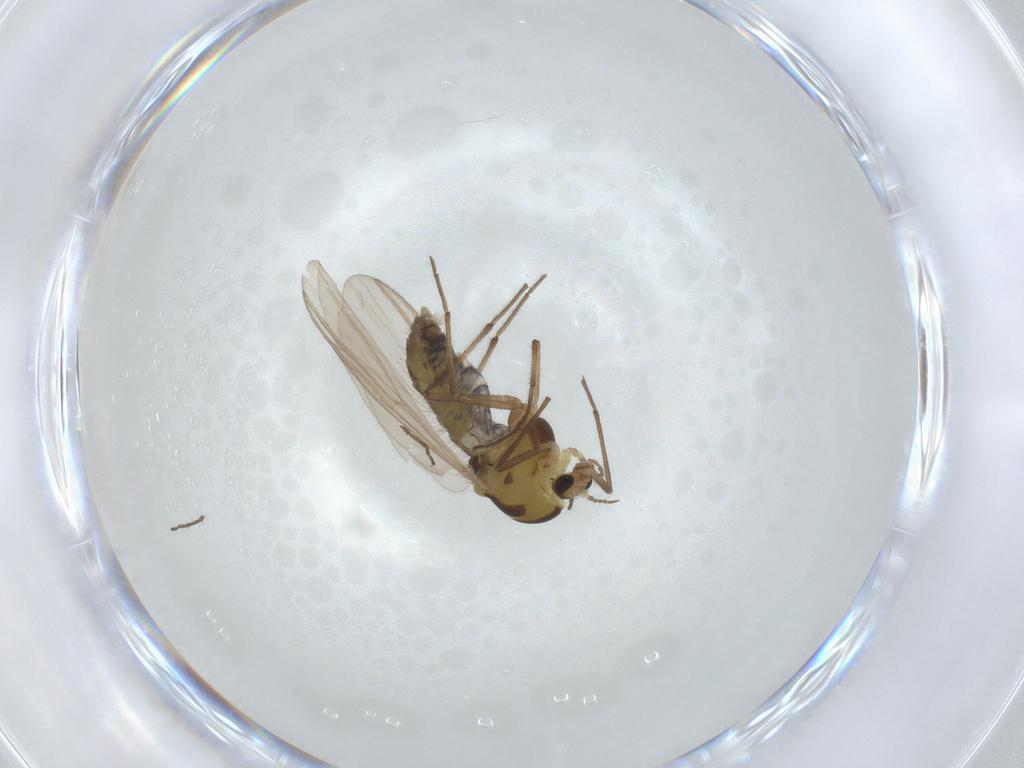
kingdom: Animalia
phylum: Arthropoda
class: Insecta
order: Diptera
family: Chironomidae
